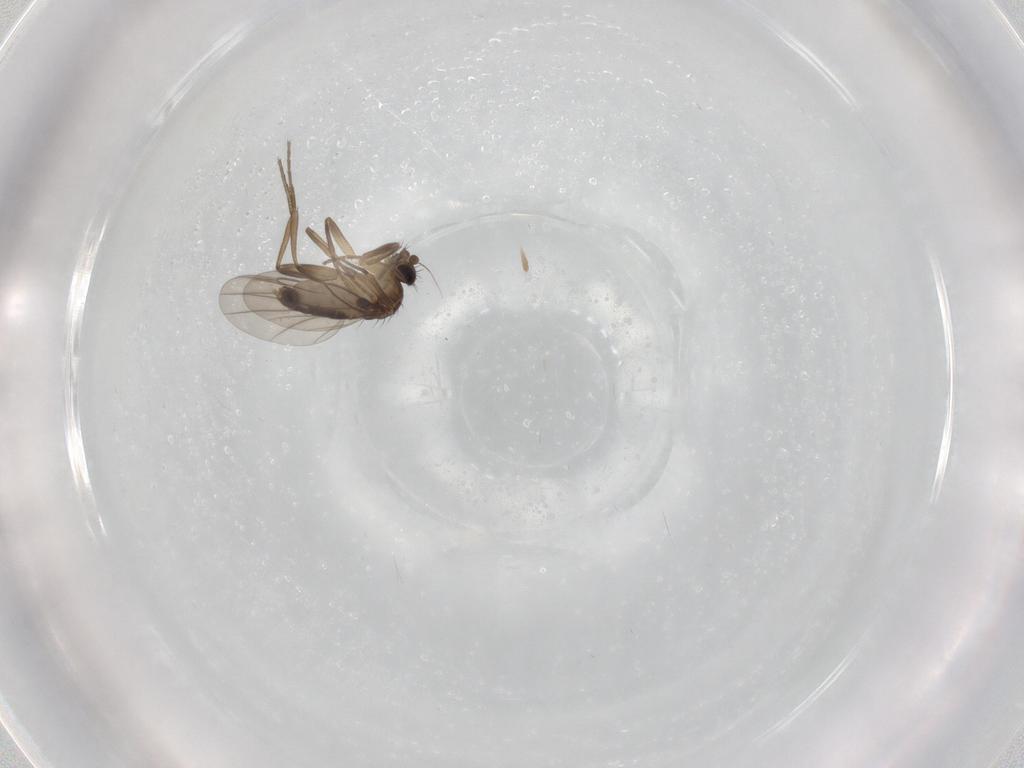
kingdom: Animalia
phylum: Arthropoda
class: Insecta
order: Diptera
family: Phoridae
